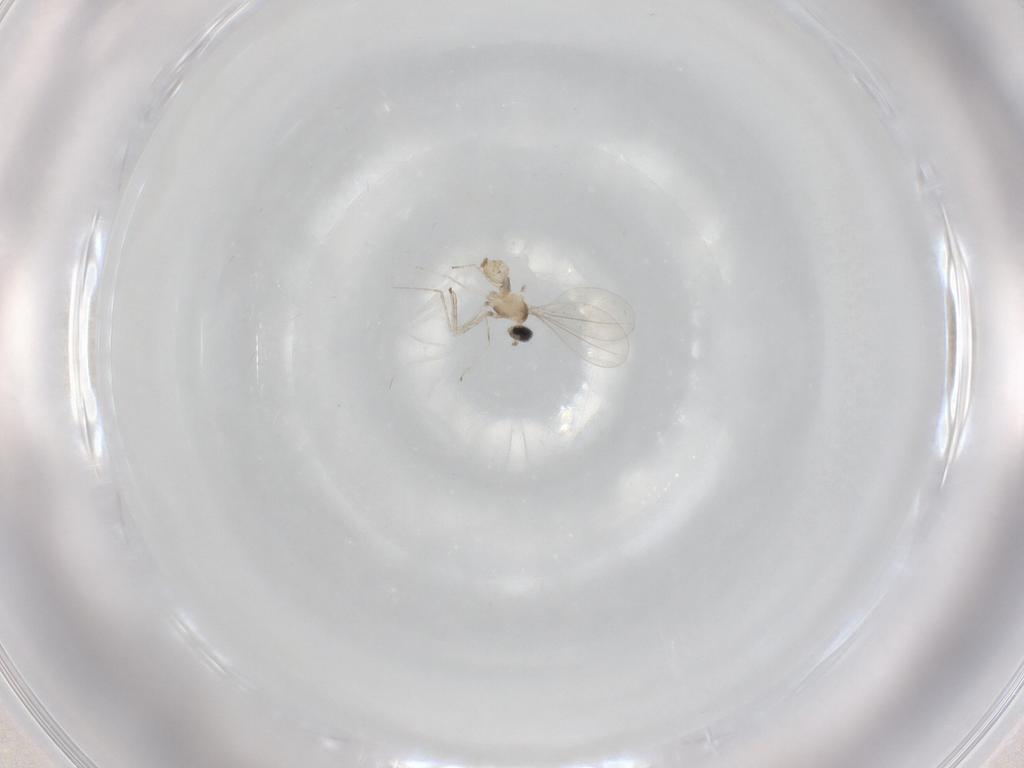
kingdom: Animalia
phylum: Arthropoda
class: Insecta
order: Diptera
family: Cecidomyiidae
